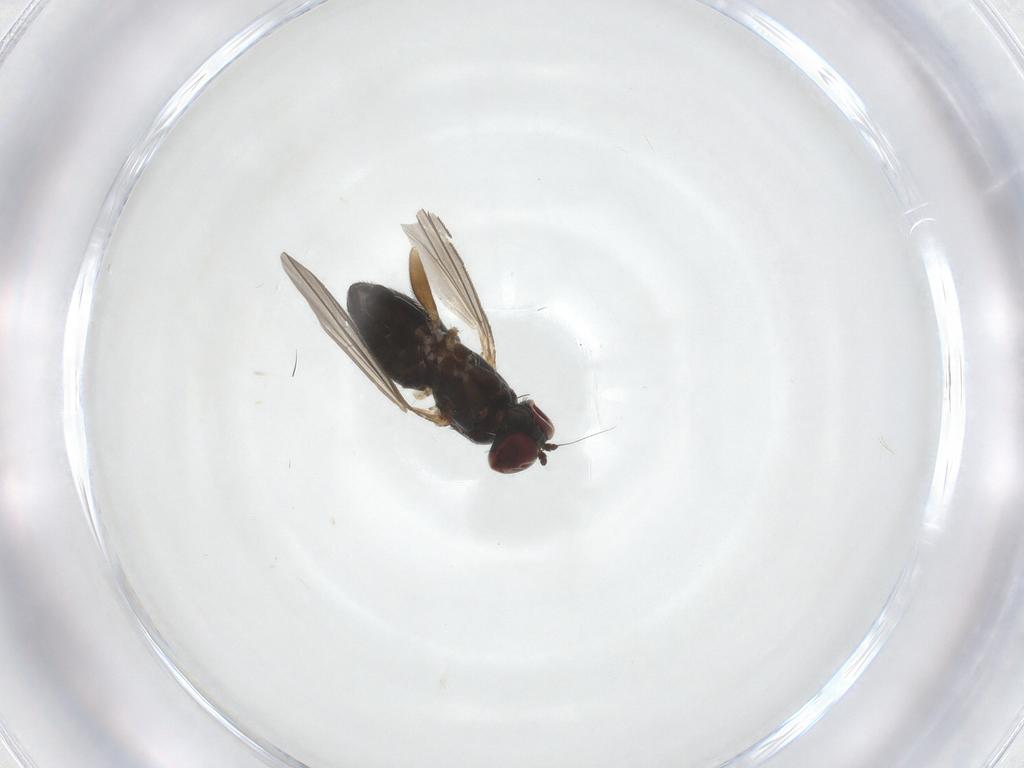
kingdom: Animalia
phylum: Arthropoda
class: Insecta
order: Diptera
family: Dolichopodidae
